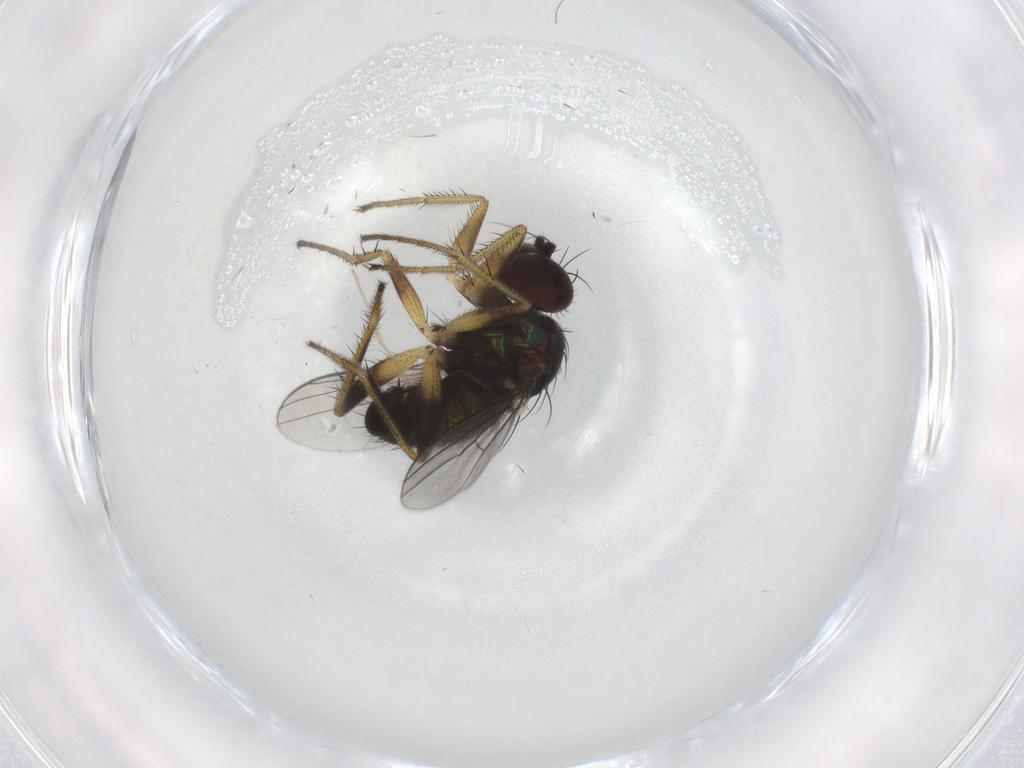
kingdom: Animalia
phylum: Arthropoda
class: Insecta
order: Diptera
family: Dolichopodidae
